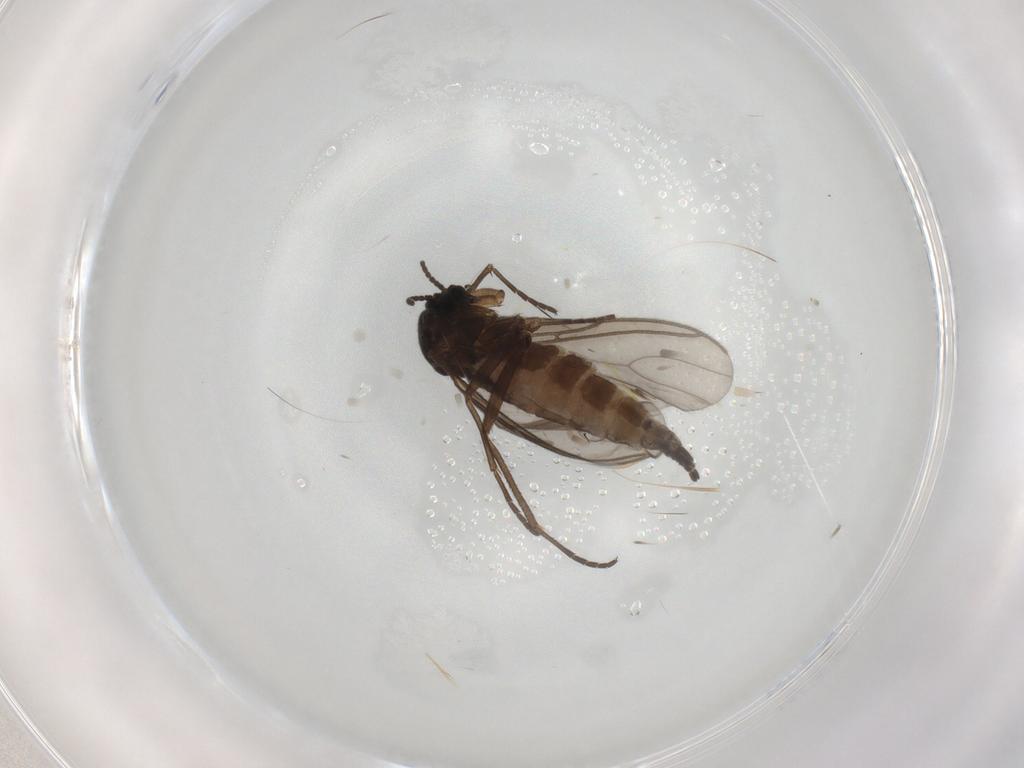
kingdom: Animalia
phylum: Arthropoda
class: Insecta
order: Diptera
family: Sciaridae
